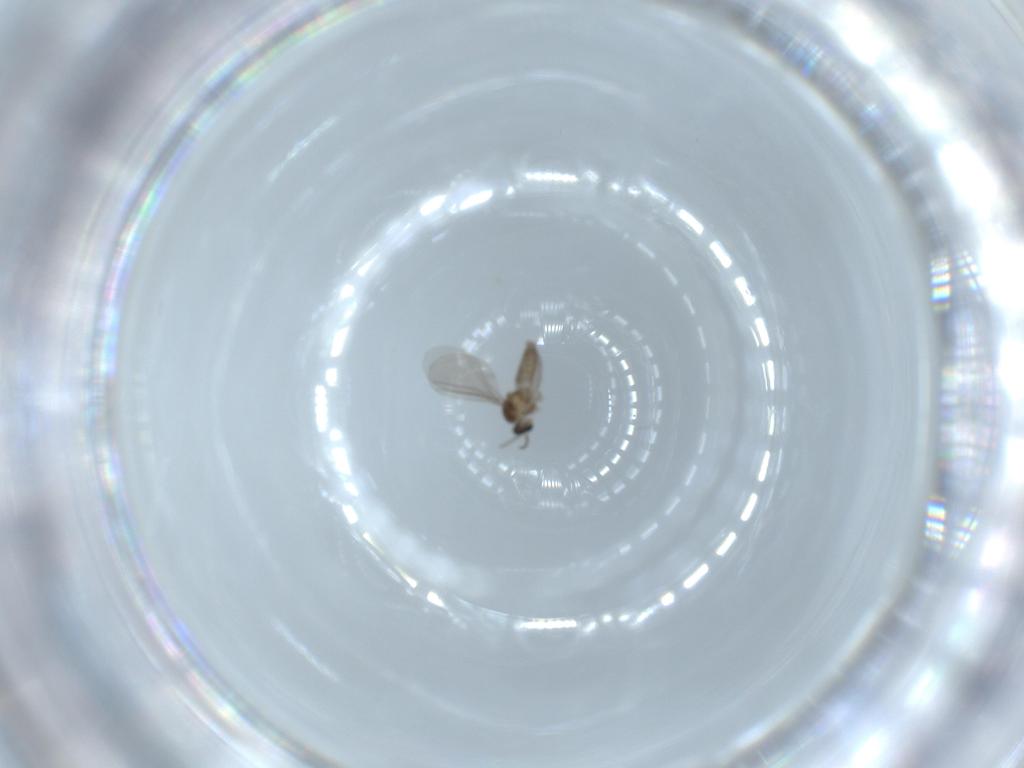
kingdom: Animalia
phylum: Arthropoda
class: Insecta
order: Diptera
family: Cecidomyiidae
